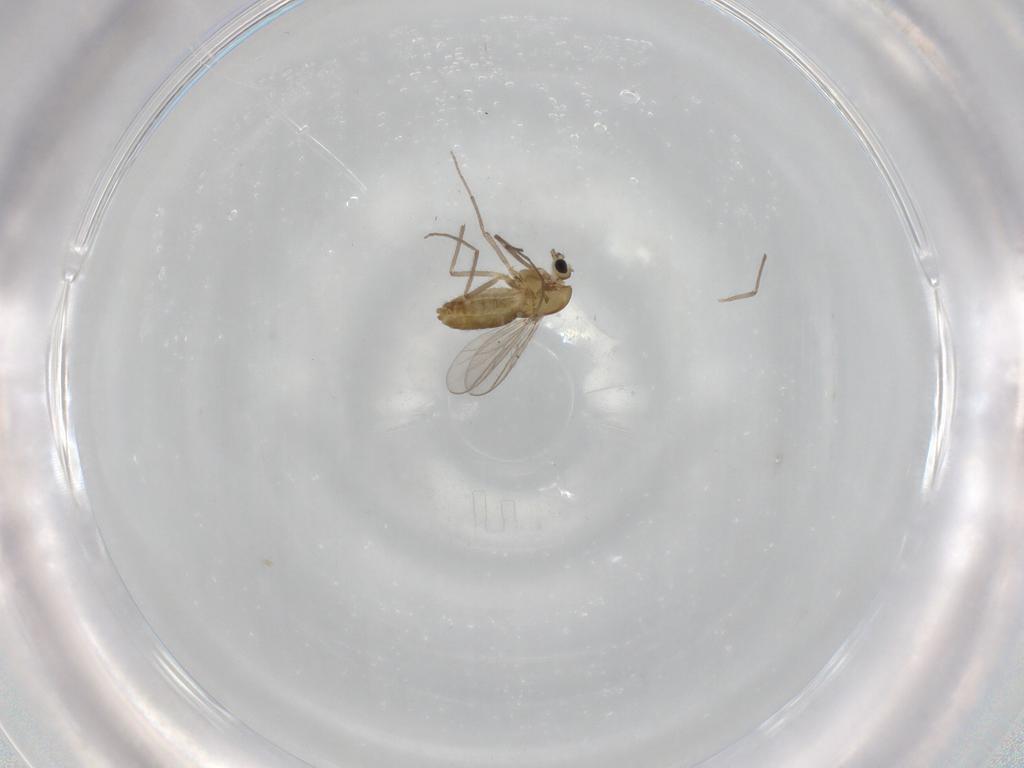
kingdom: Animalia
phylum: Arthropoda
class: Insecta
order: Diptera
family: Chironomidae
